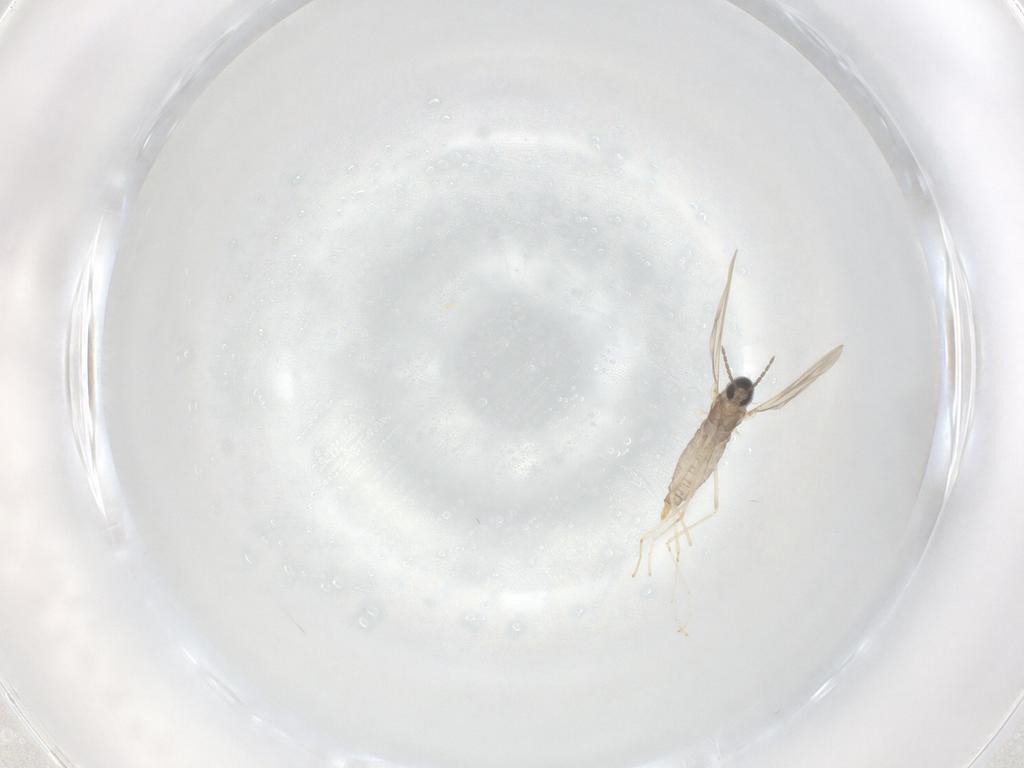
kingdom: Animalia
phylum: Arthropoda
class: Insecta
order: Diptera
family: Cecidomyiidae
